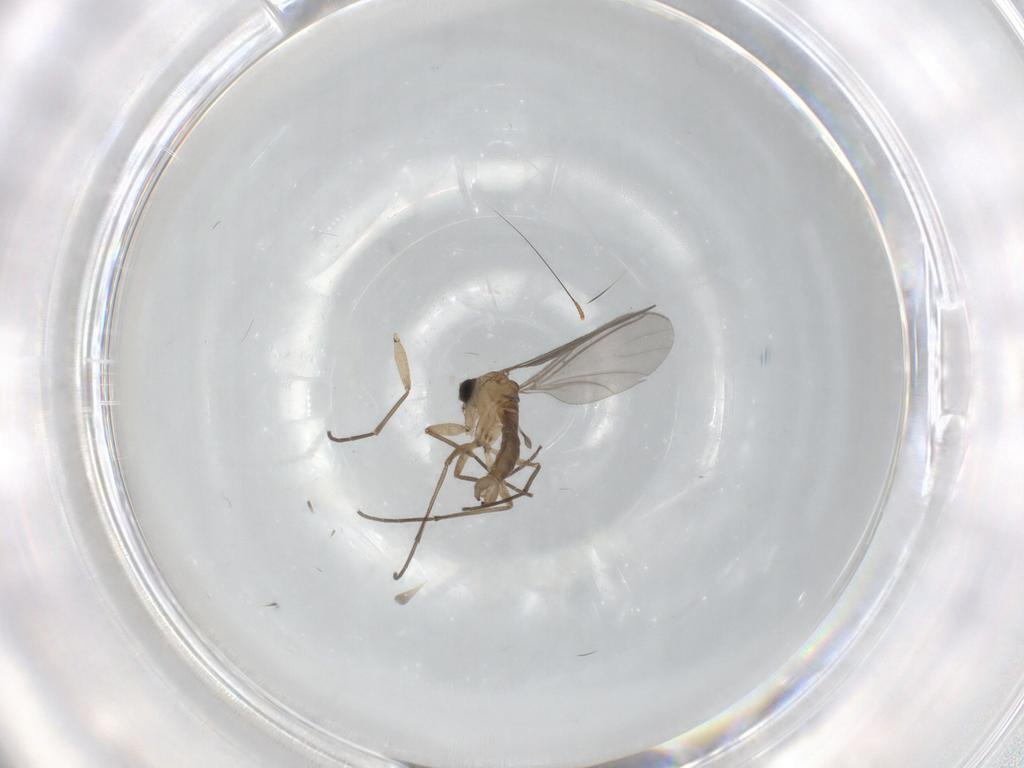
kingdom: Animalia
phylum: Arthropoda
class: Insecta
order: Diptera
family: Sciaridae
